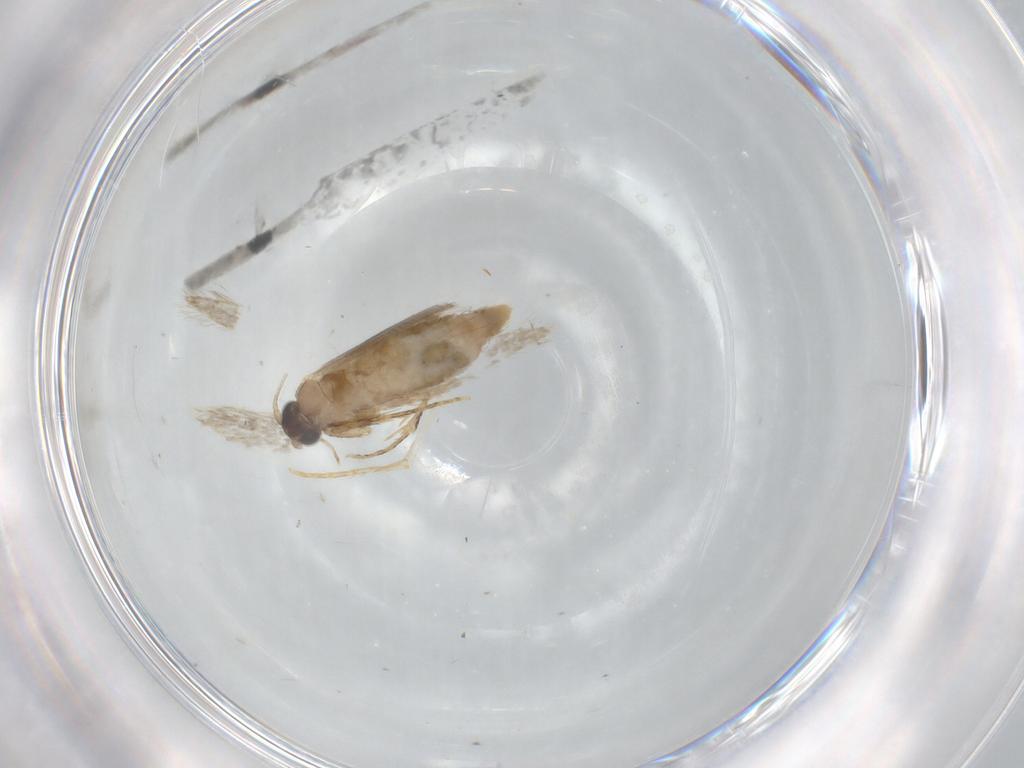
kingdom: Animalia
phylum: Arthropoda
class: Insecta
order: Lepidoptera
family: Tineidae
